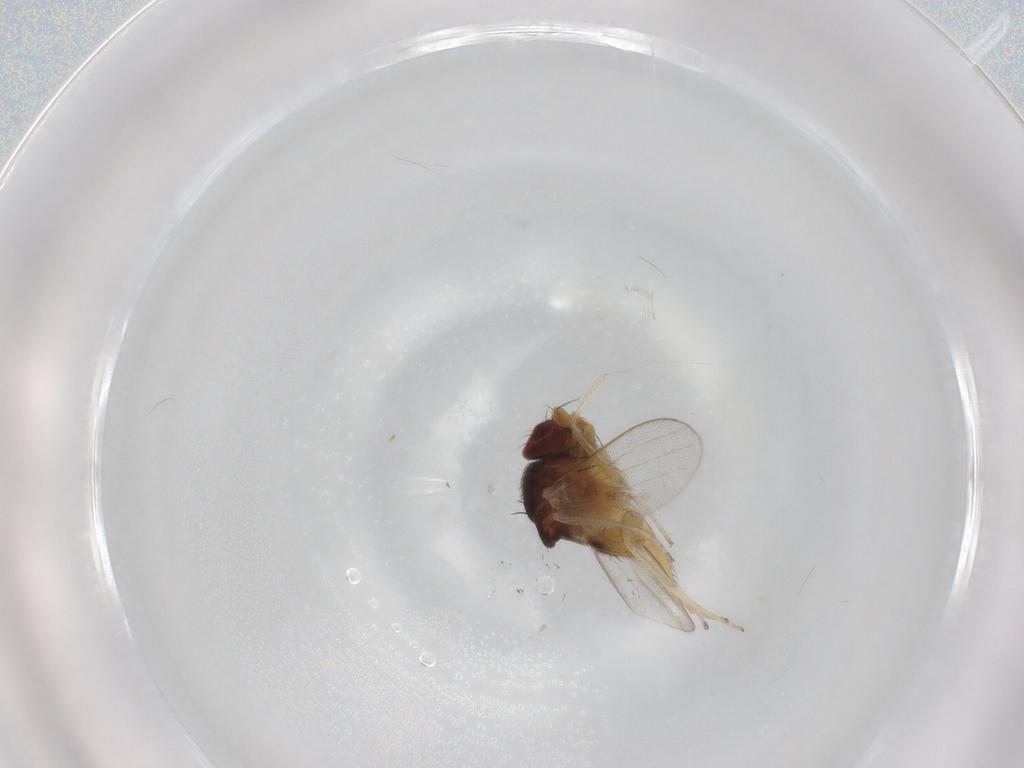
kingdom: Animalia
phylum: Arthropoda
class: Insecta
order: Diptera
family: Milichiidae
